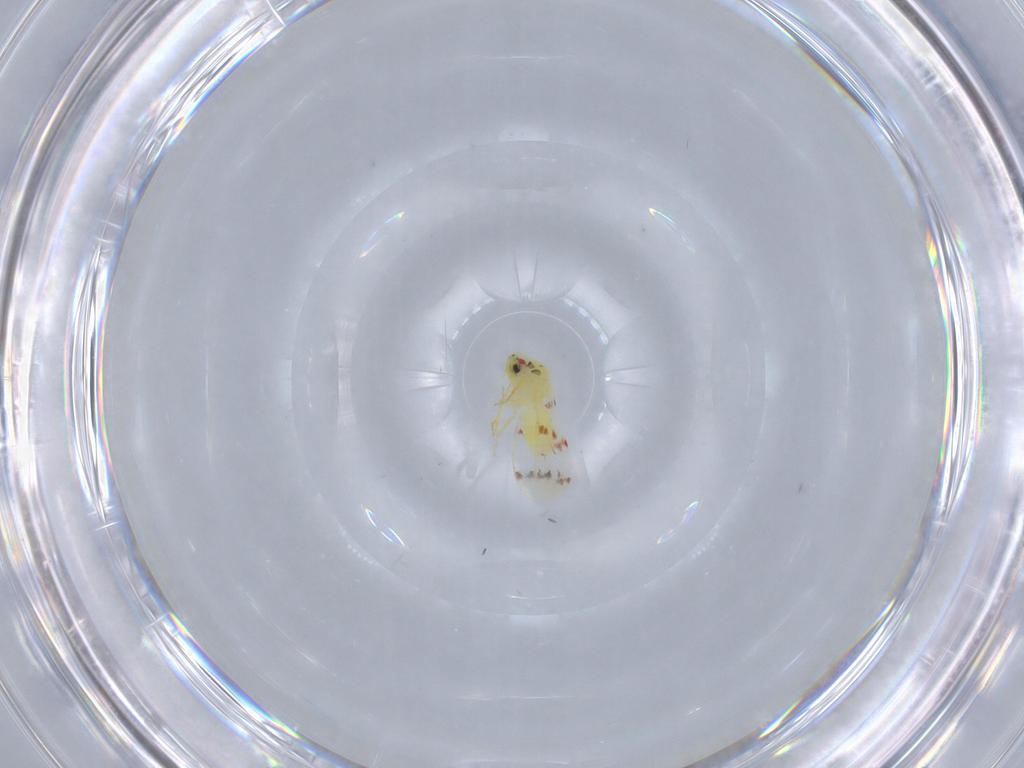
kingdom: Animalia
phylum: Arthropoda
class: Insecta
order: Hemiptera
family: Aleyrodidae
